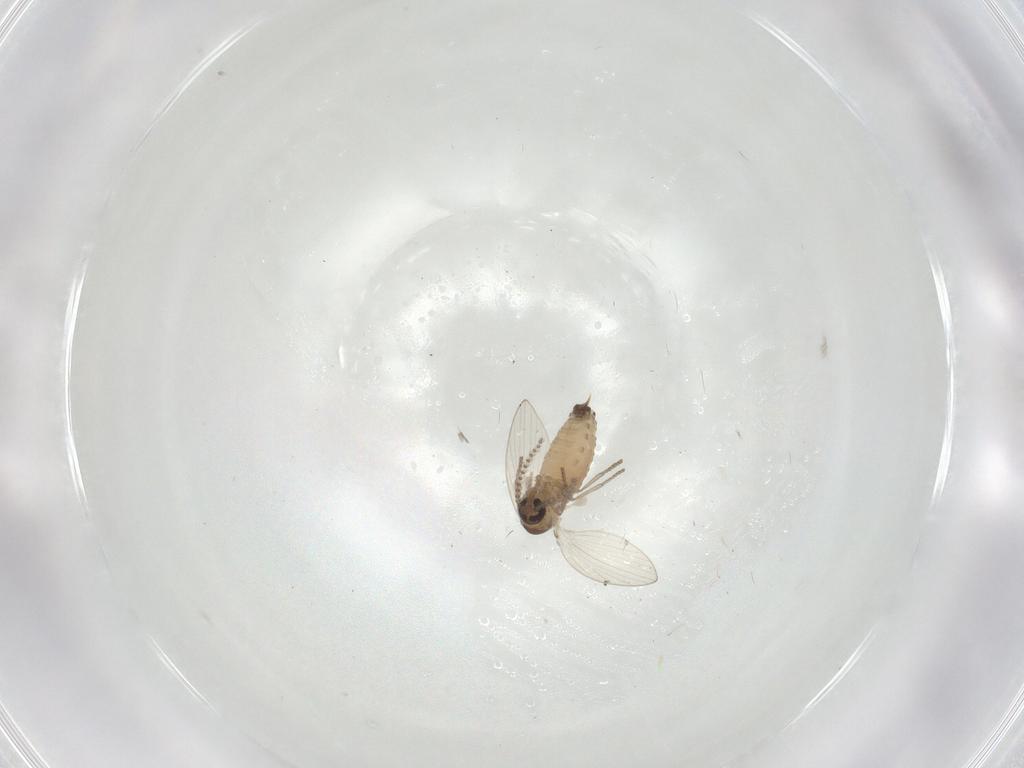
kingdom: Animalia
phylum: Arthropoda
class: Insecta
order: Diptera
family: Psychodidae
